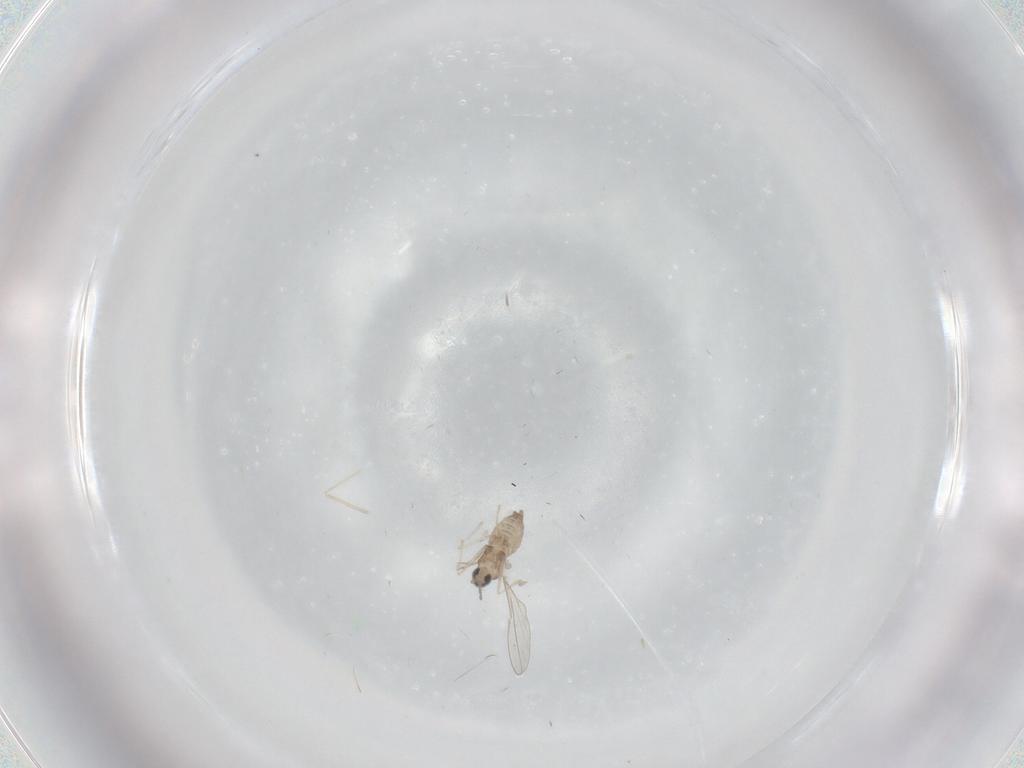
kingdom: Animalia
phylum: Arthropoda
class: Insecta
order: Diptera
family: Cecidomyiidae
